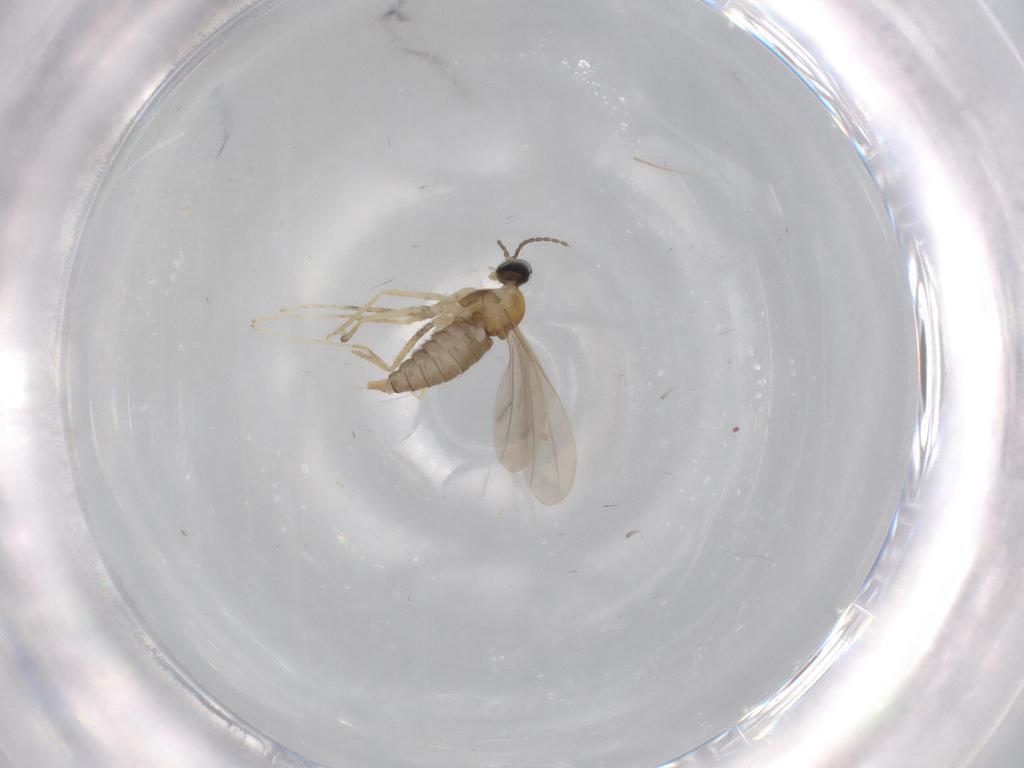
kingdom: Animalia
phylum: Arthropoda
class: Insecta
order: Diptera
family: Cecidomyiidae
